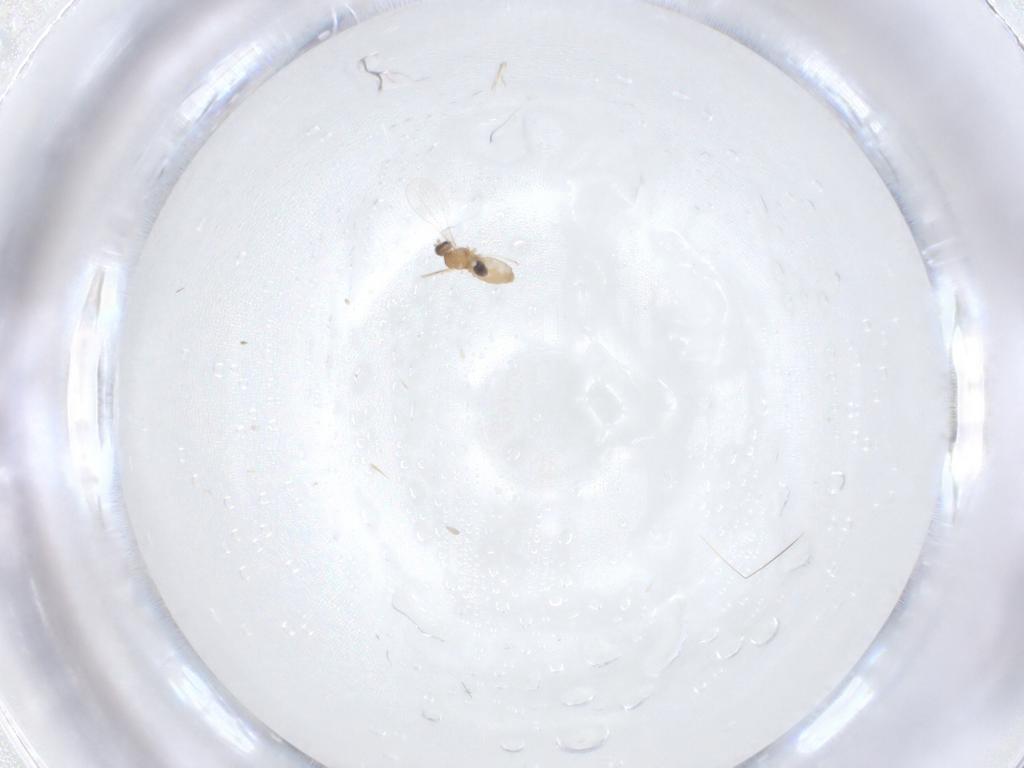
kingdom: Animalia
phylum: Arthropoda
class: Insecta
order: Diptera
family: Cecidomyiidae
